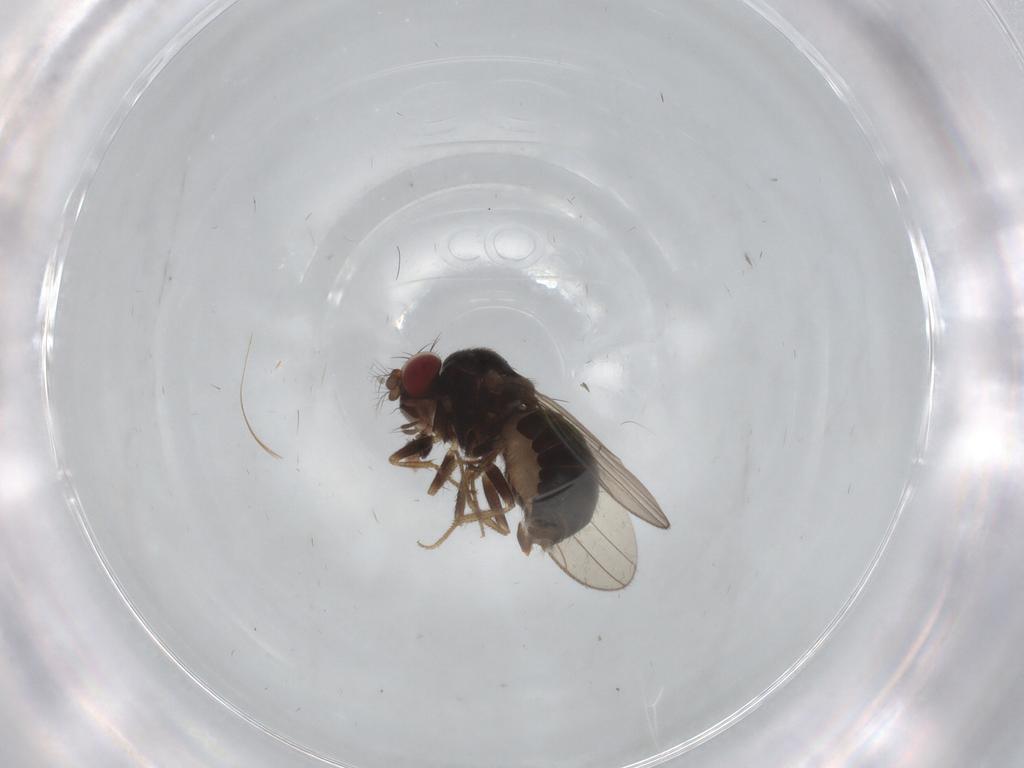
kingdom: Animalia
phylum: Arthropoda
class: Insecta
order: Diptera
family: Drosophilidae
